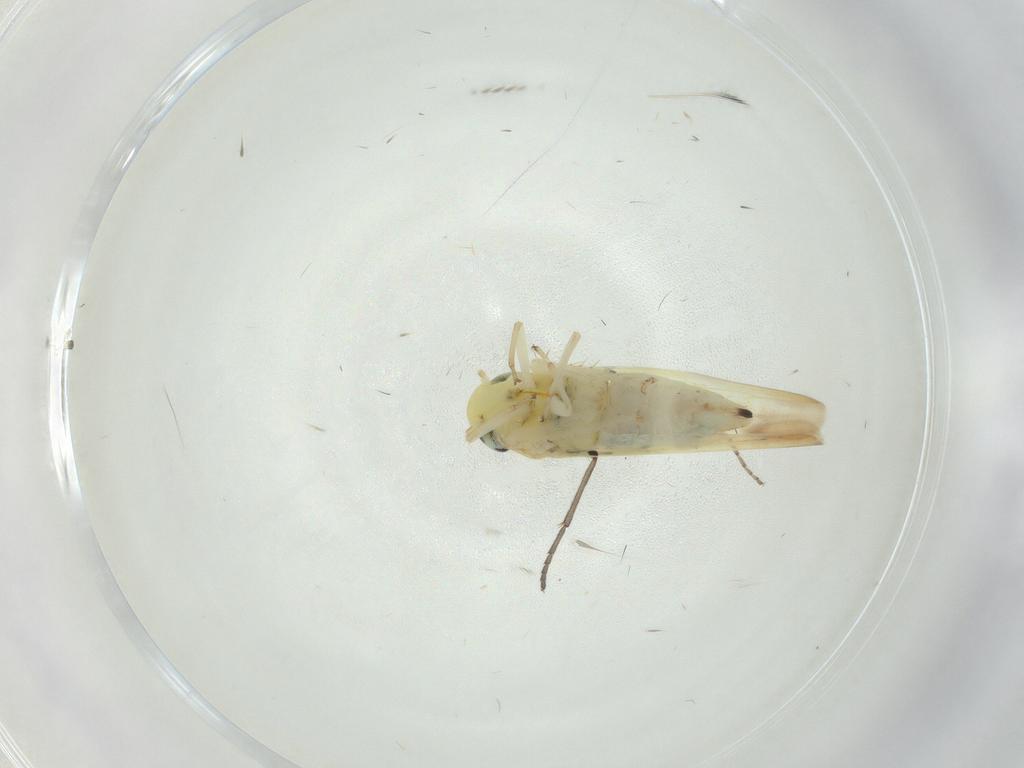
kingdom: Animalia
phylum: Arthropoda
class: Insecta
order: Hemiptera
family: Cicadellidae
